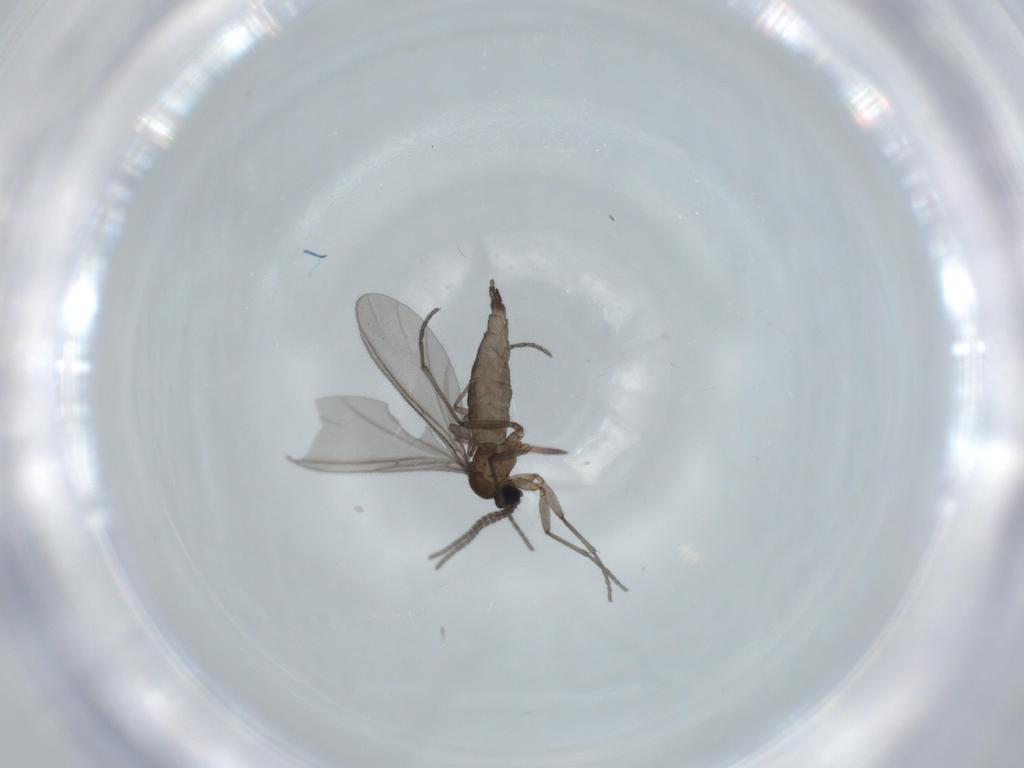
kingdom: Animalia
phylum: Arthropoda
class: Insecta
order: Diptera
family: Sciaridae
